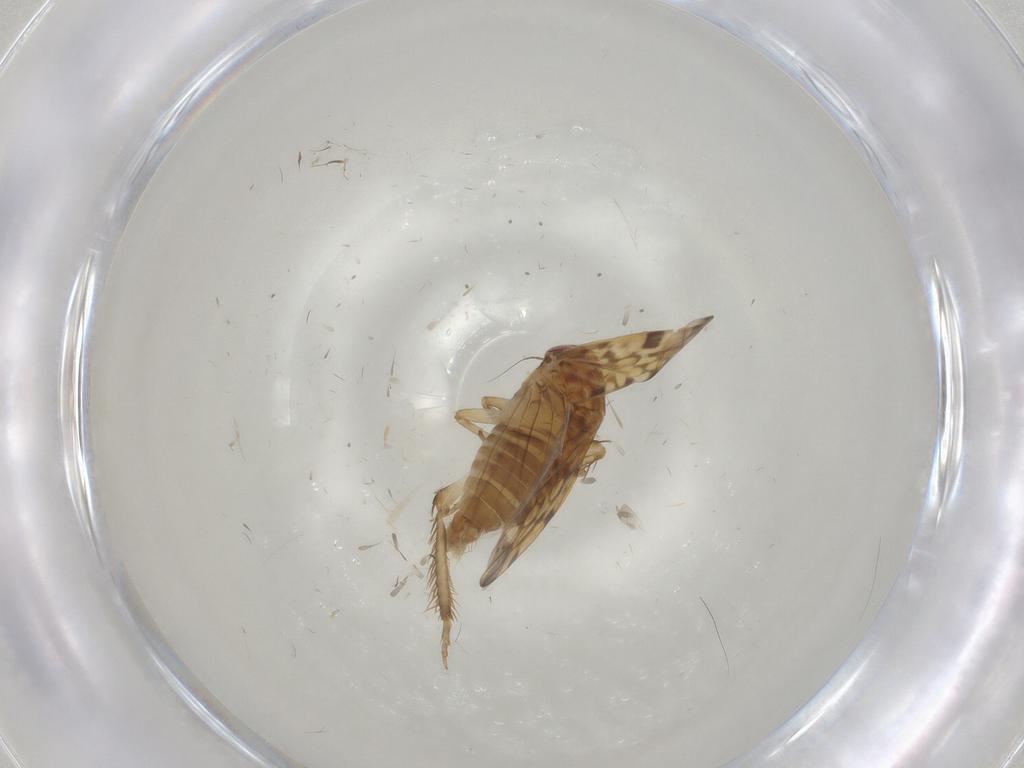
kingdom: Animalia
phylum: Arthropoda
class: Insecta
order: Hemiptera
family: Cicadellidae
